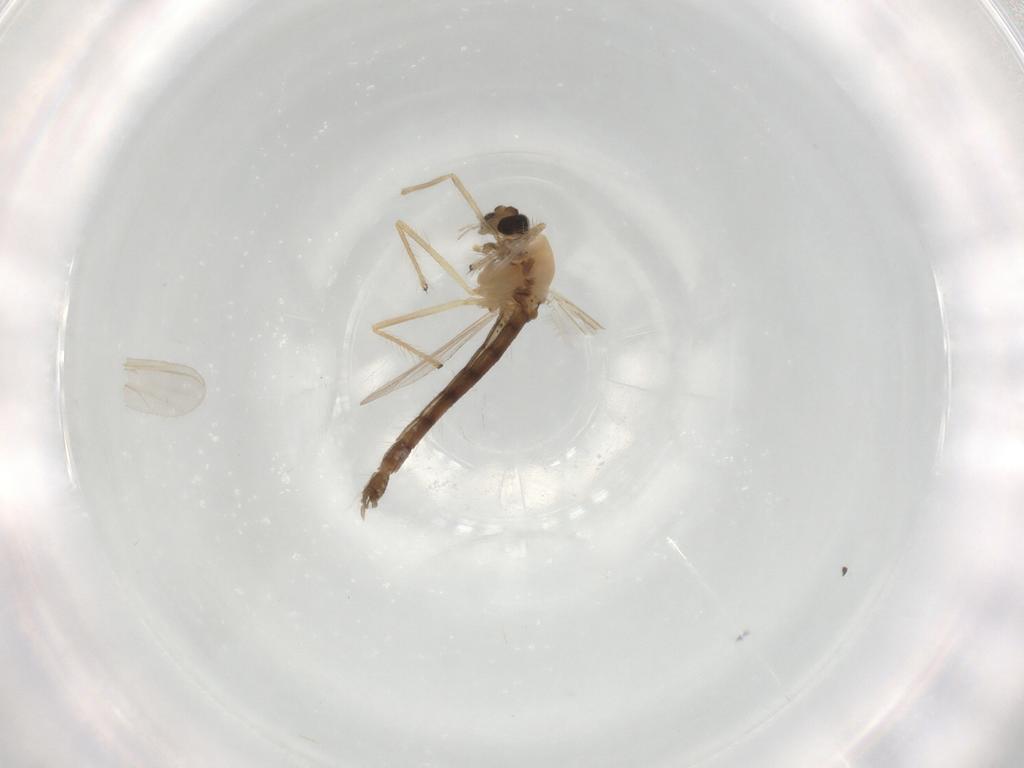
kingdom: Animalia
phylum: Arthropoda
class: Insecta
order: Diptera
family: Chironomidae
